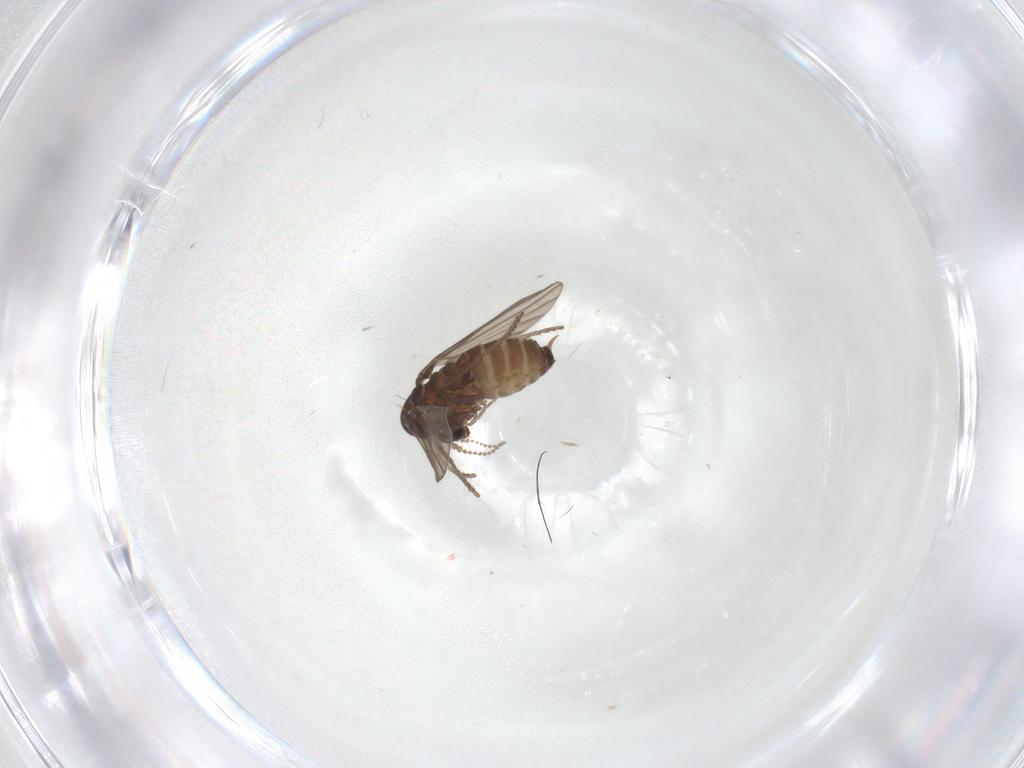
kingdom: Animalia
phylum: Arthropoda
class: Insecta
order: Diptera
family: Psychodidae
